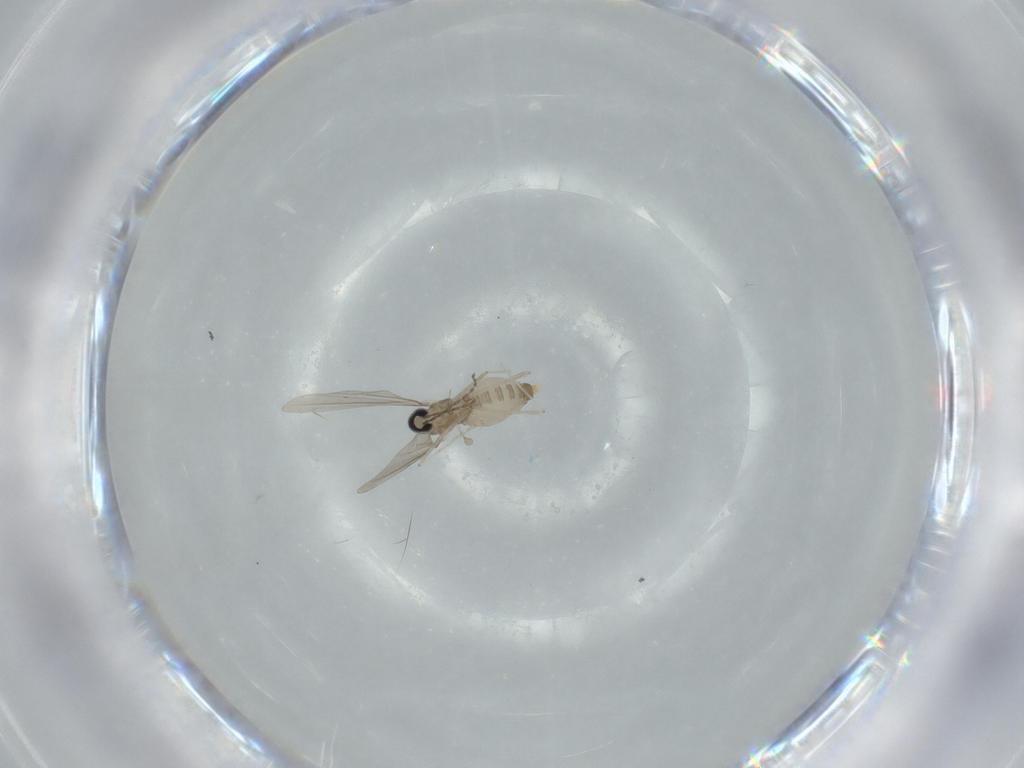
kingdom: Animalia
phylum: Arthropoda
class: Insecta
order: Diptera
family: Cecidomyiidae
